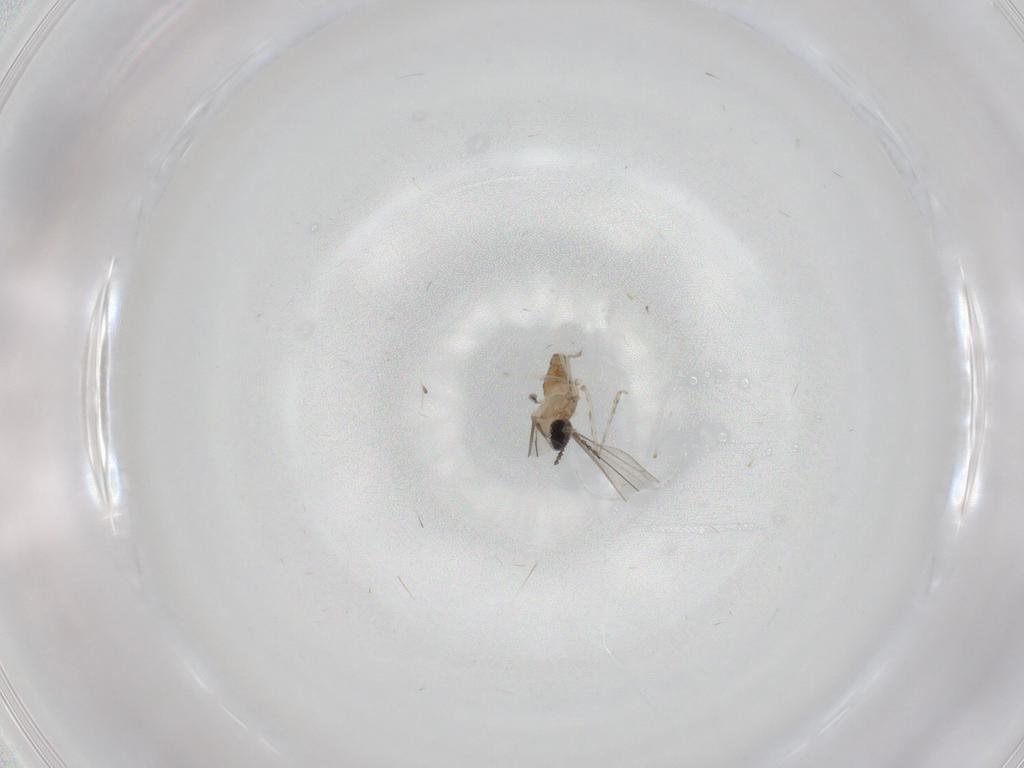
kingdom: Animalia
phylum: Arthropoda
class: Insecta
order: Diptera
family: Cecidomyiidae
